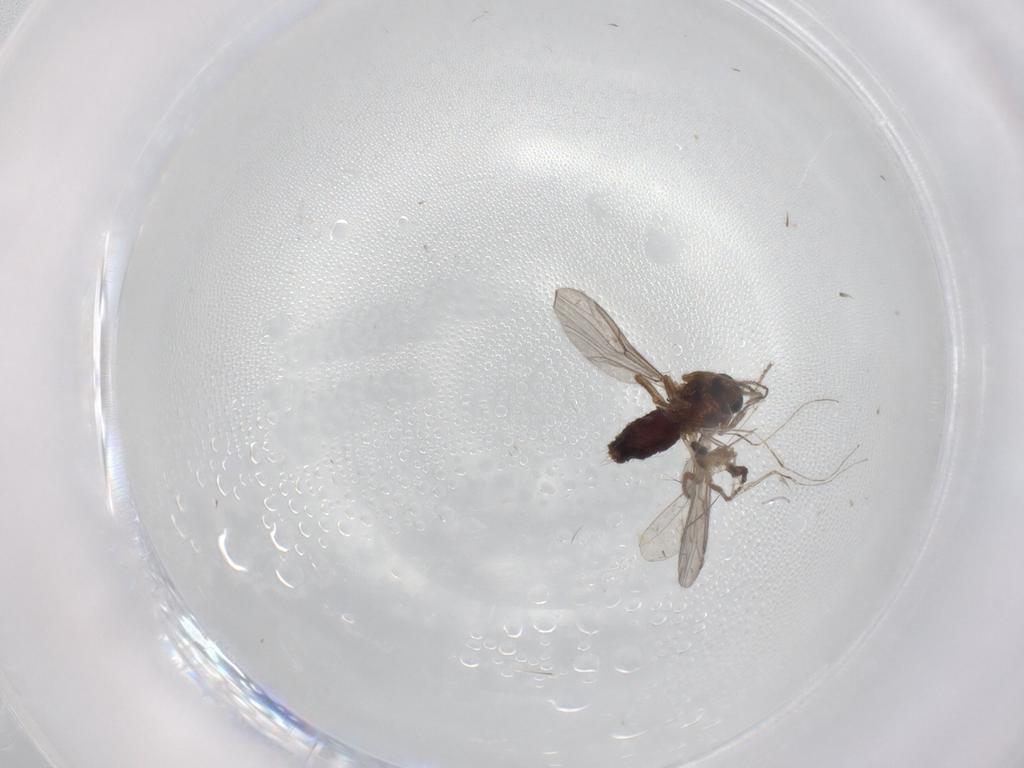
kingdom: Animalia
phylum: Arthropoda
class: Insecta
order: Diptera
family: Ceratopogonidae
